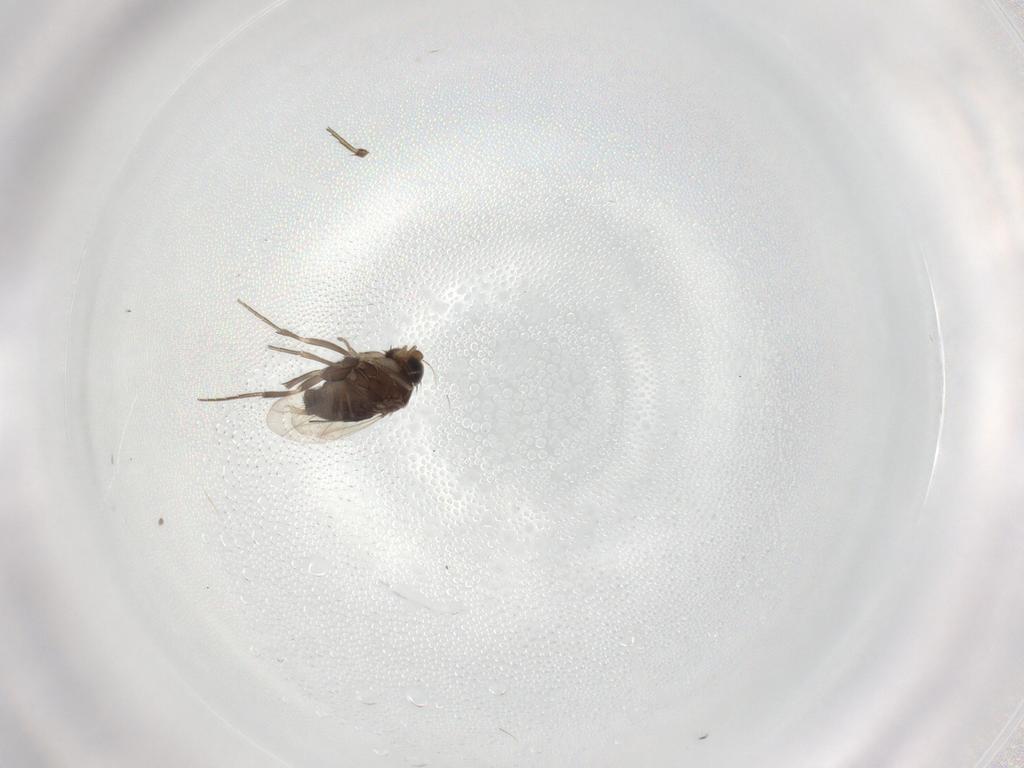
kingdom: Animalia
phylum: Arthropoda
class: Insecta
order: Diptera
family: Phoridae
